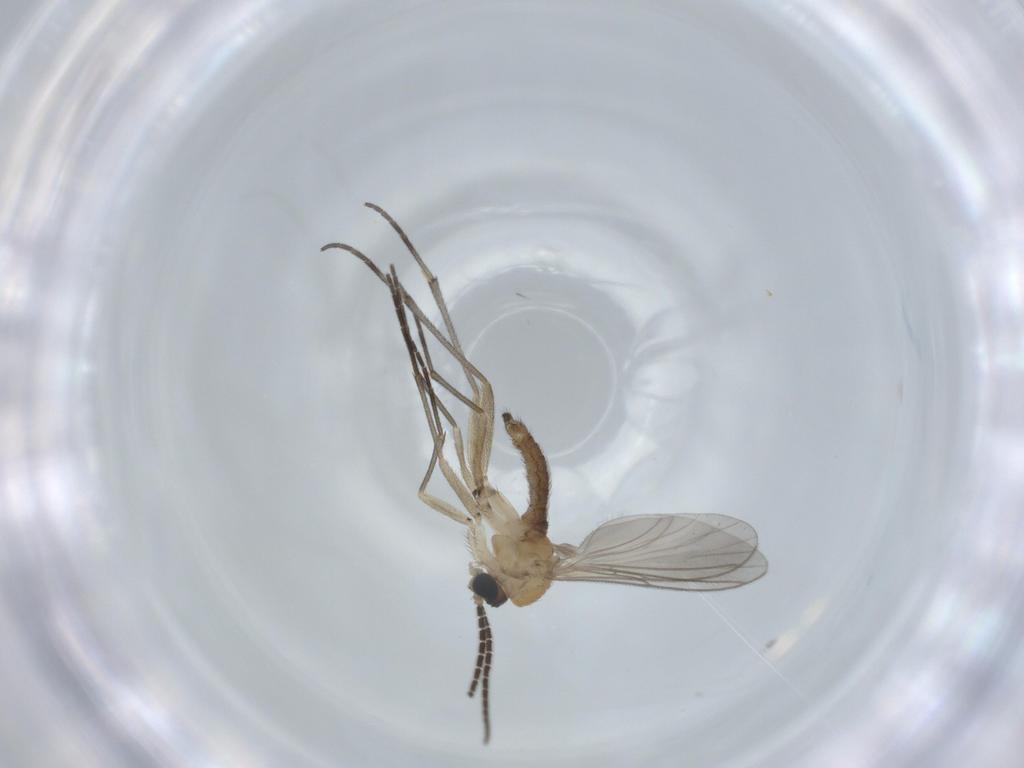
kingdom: Animalia
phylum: Arthropoda
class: Insecta
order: Diptera
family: Sciaridae
